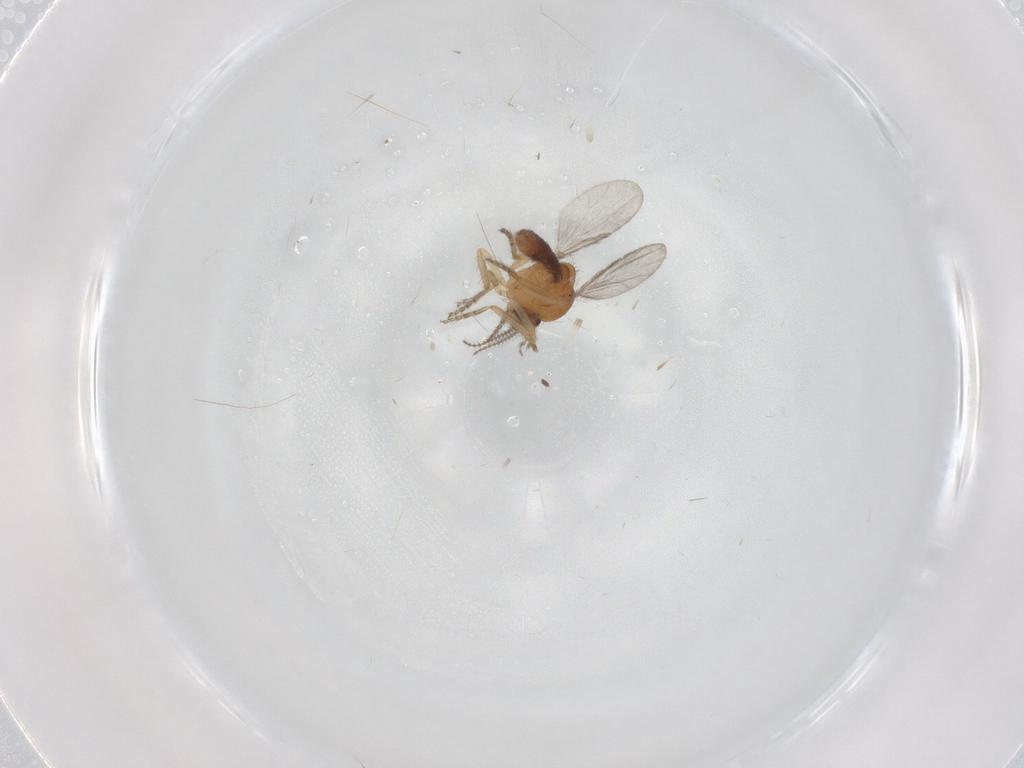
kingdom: Animalia
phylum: Arthropoda
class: Insecta
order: Diptera
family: Ceratopogonidae
